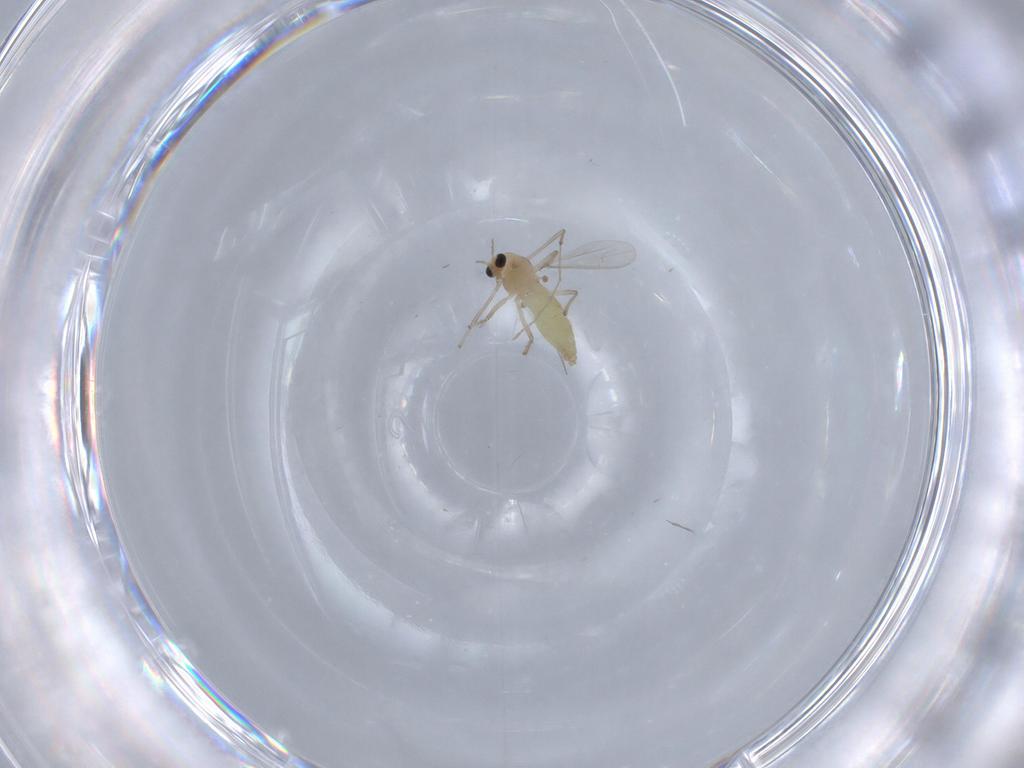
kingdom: Animalia
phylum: Arthropoda
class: Insecta
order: Diptera
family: Chironomidae
